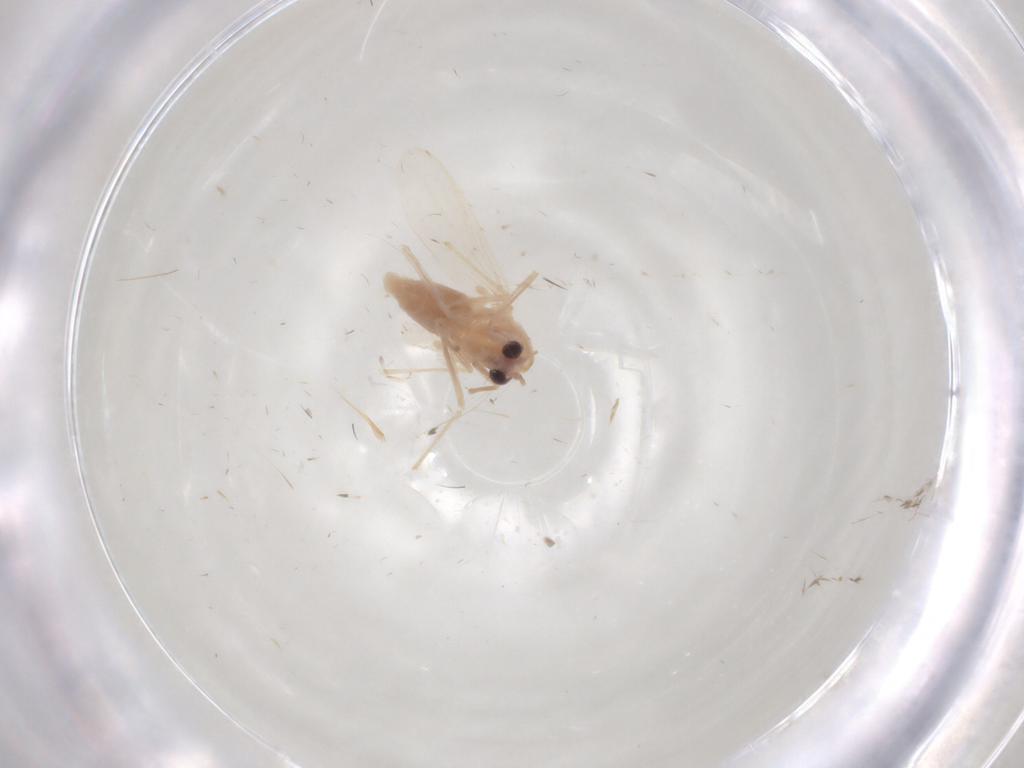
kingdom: Animalia
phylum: Arthropoda
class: Insecta
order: Diptera
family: Chironomidae
